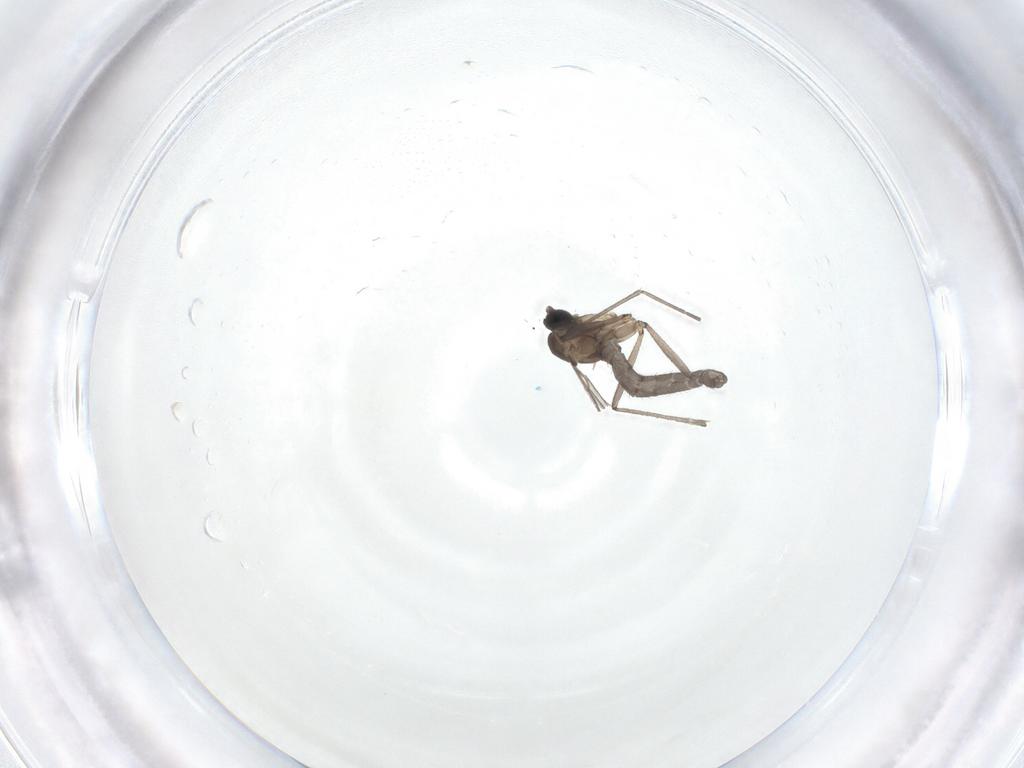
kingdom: Animalia
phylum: Arthropoda
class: Insecta
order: Diptera
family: Sciaridae
